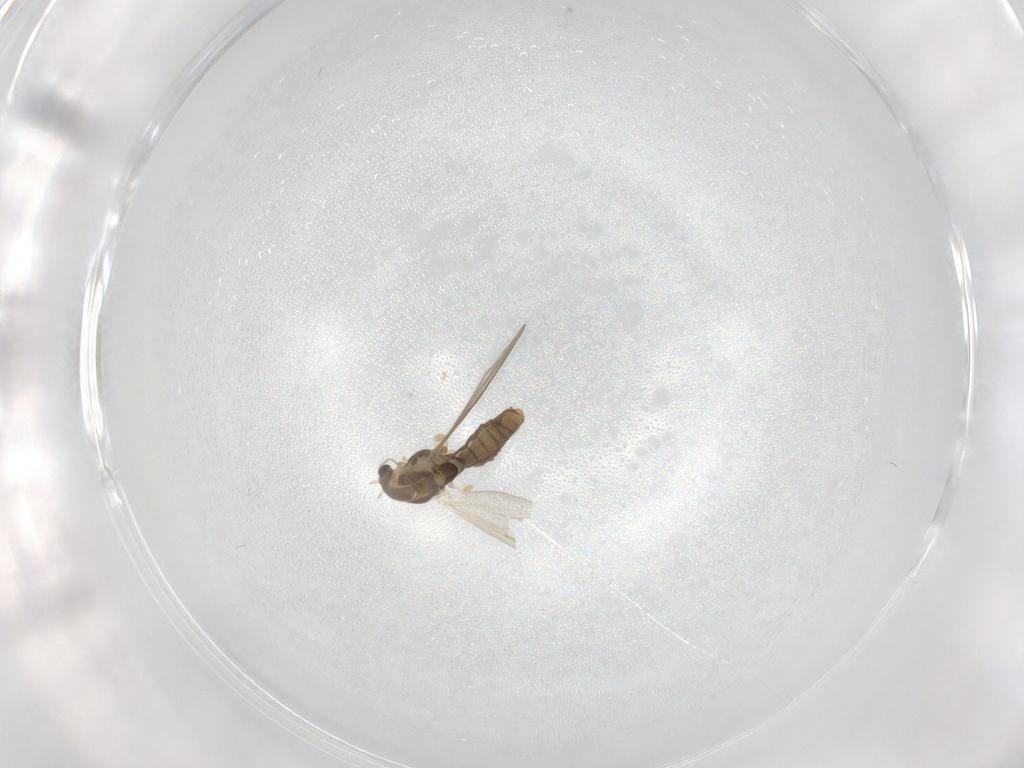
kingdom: Animalia
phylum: Arthropoda
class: Insecta
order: Diptera
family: Chironomidae
